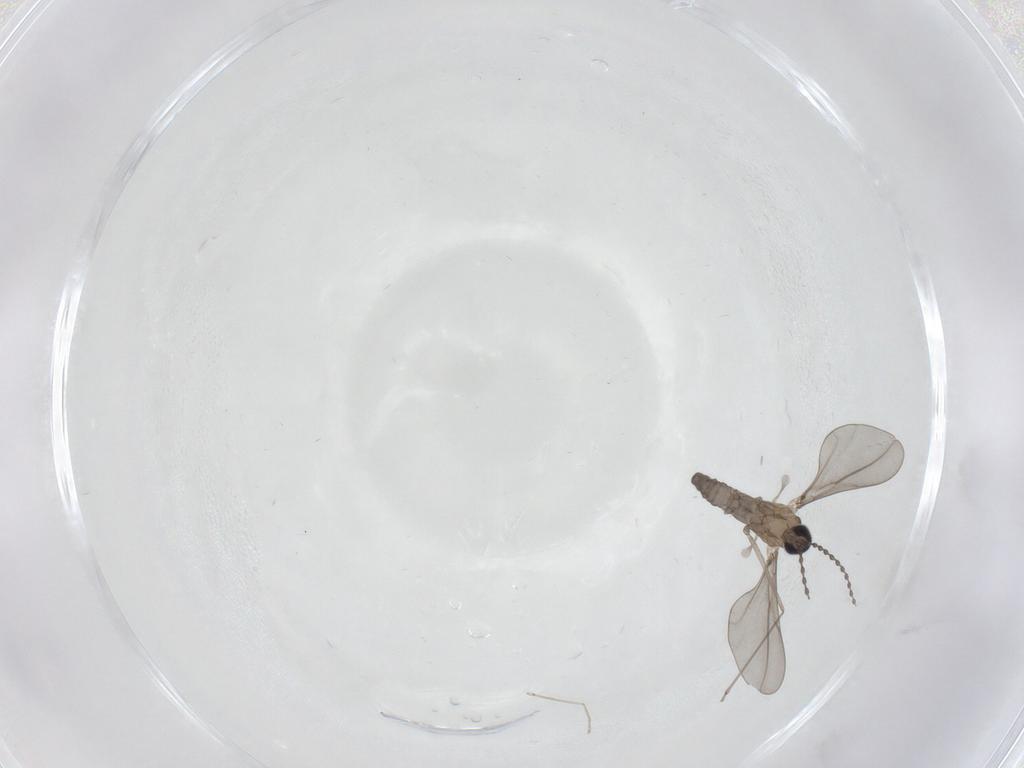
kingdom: Animalia
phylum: Arthropoda
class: Insecta
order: Diptera
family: Cecidomyiidae
